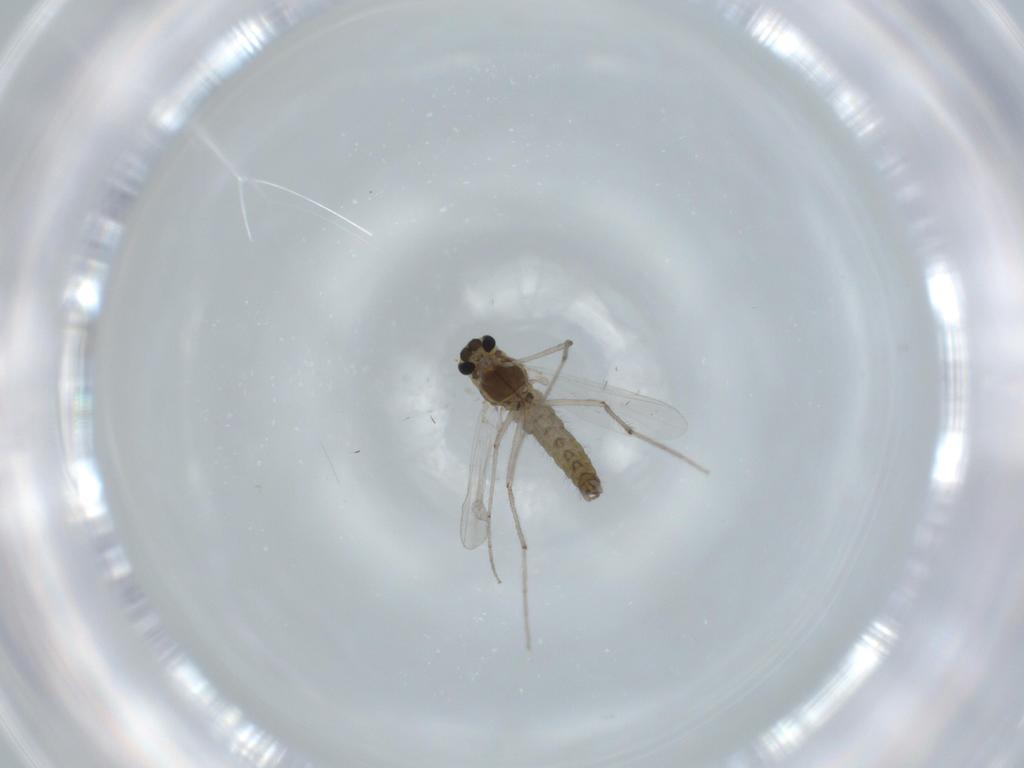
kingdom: Animalia
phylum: Arthropoda
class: Insecta
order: Diptera
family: Chironomidae
